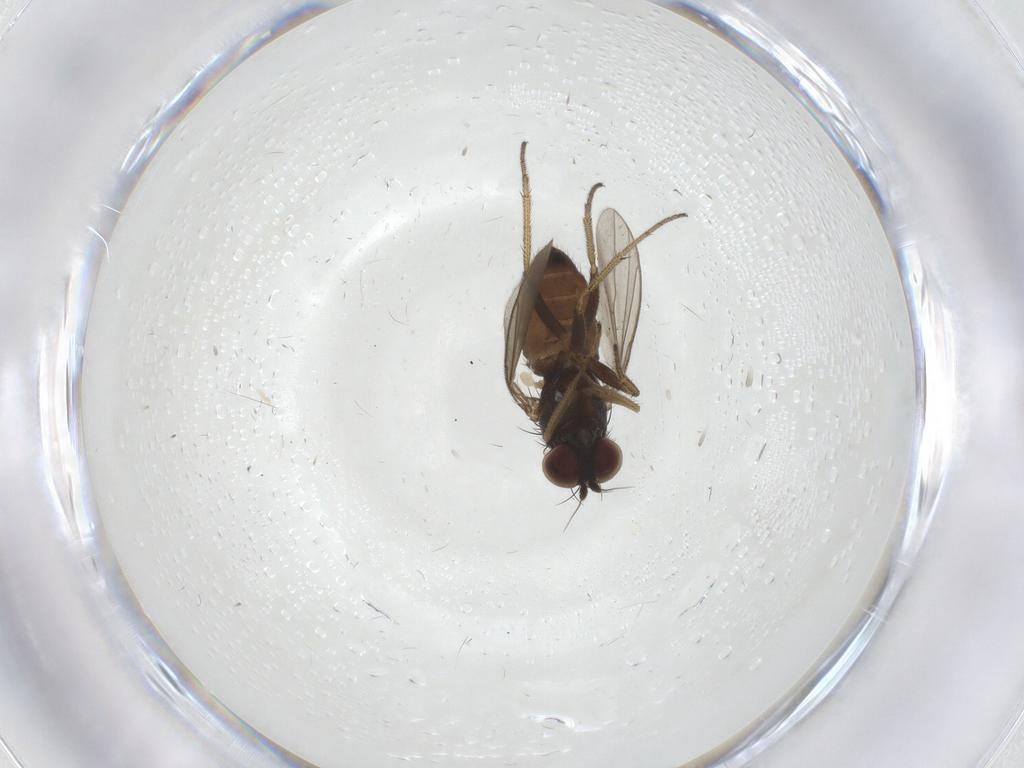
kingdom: Animalia
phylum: Arthropoda
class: Insecta
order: Diptera
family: Dolichopodidae
